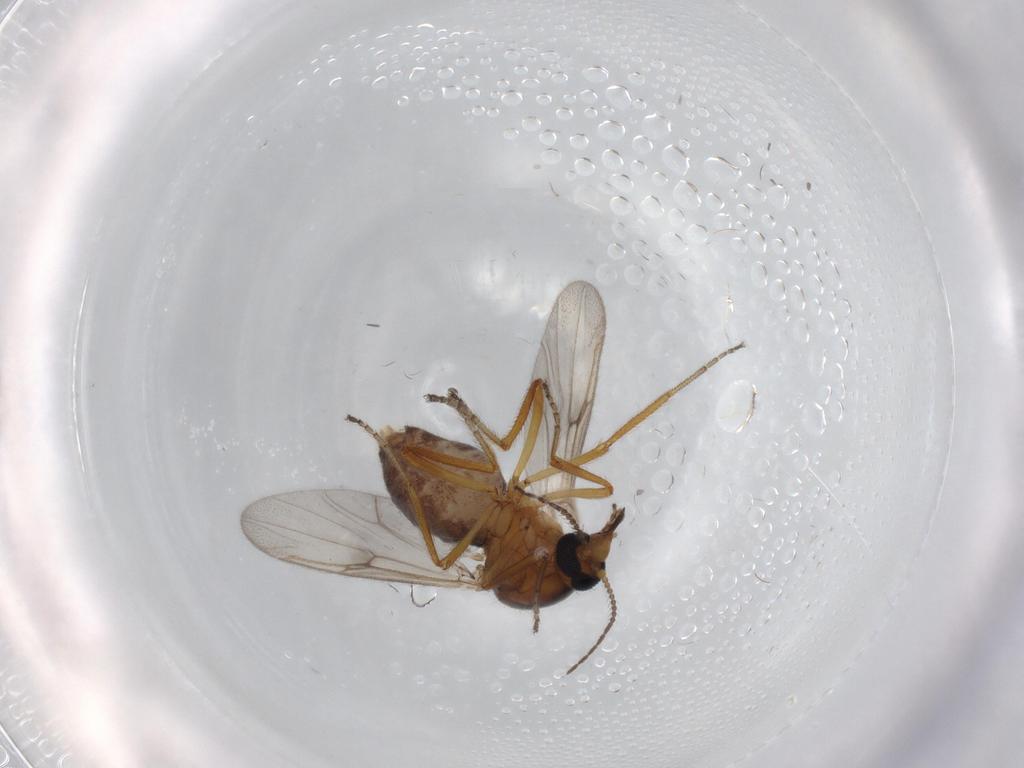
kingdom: Animalia
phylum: Arthropoda
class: Insecta
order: Diptera
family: Ceratopogonidae
